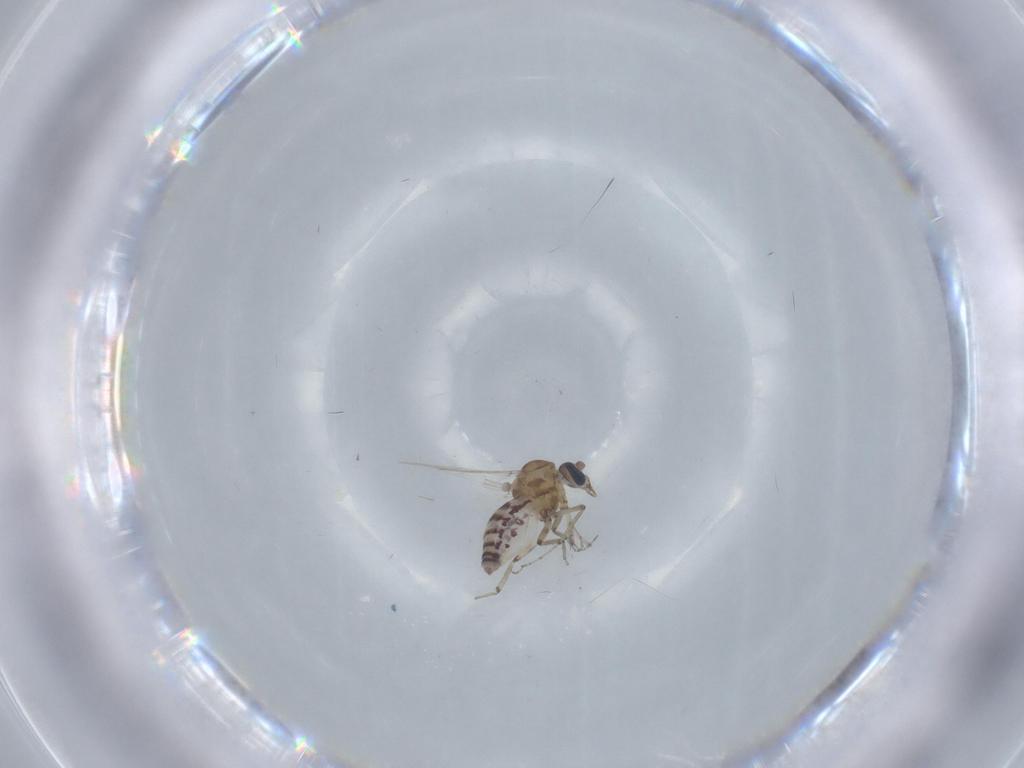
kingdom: Animalia
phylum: Arthropoda
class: Insecta
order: Diptera
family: Ceratopogonidae
